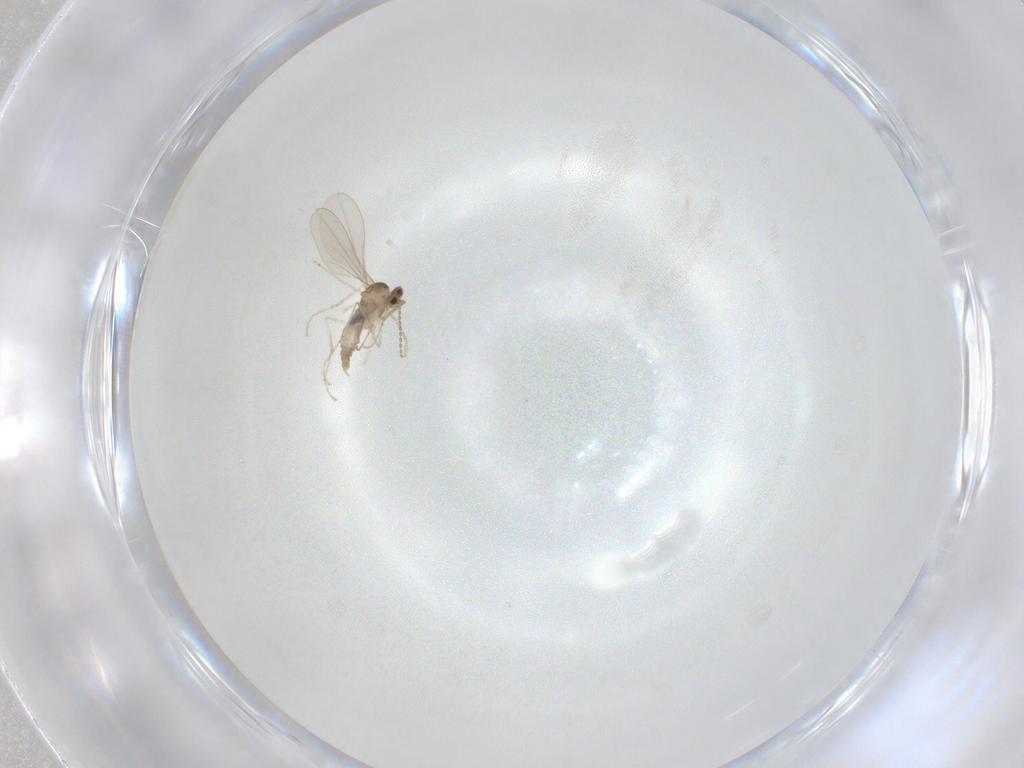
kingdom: Animalia
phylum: Arthropoda
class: Insecta
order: Diptera
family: Cecidomyiidae
